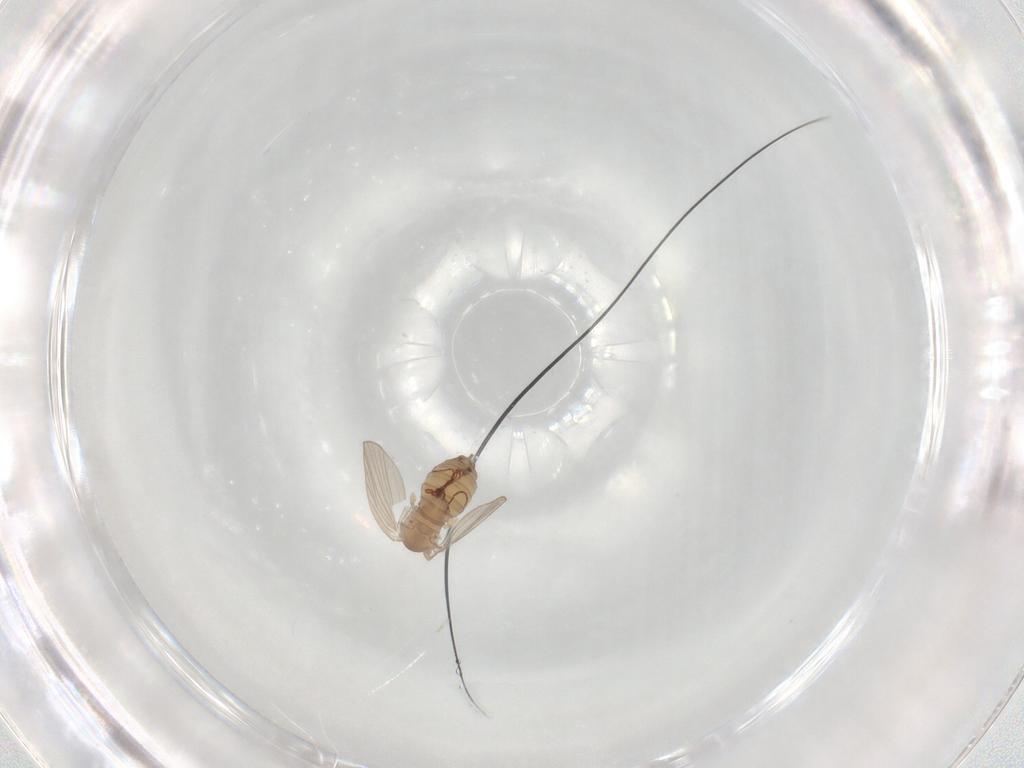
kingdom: Animalia
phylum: Arthropoda
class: Insecta
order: Diptera
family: Psychodidae
